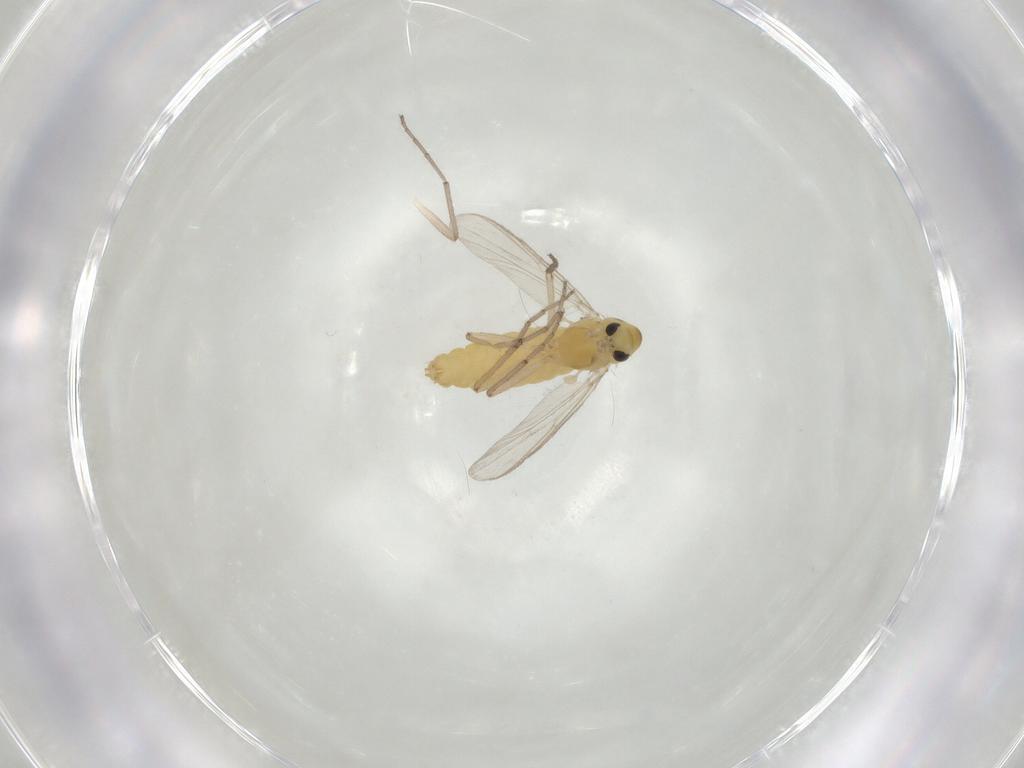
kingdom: Animalia
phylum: Arthropoda
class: Insecta
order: Diptera
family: Chironomidae
